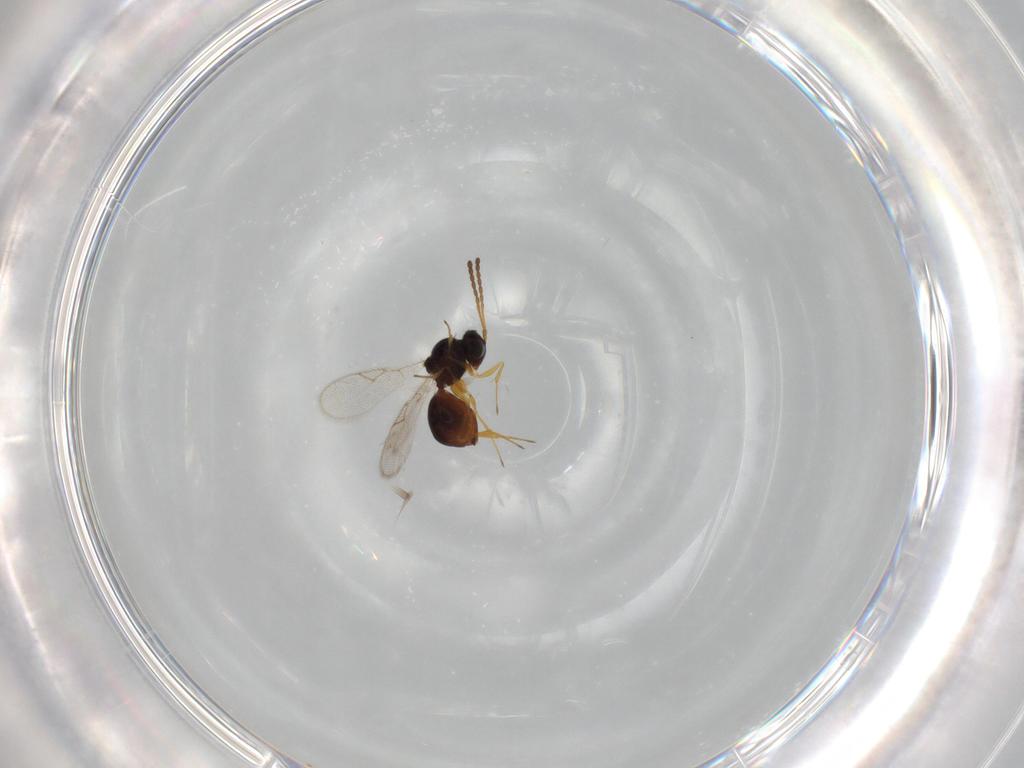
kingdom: Animalia
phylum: Arthropoda
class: Insecta
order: Hymenoptera
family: Figitidae
